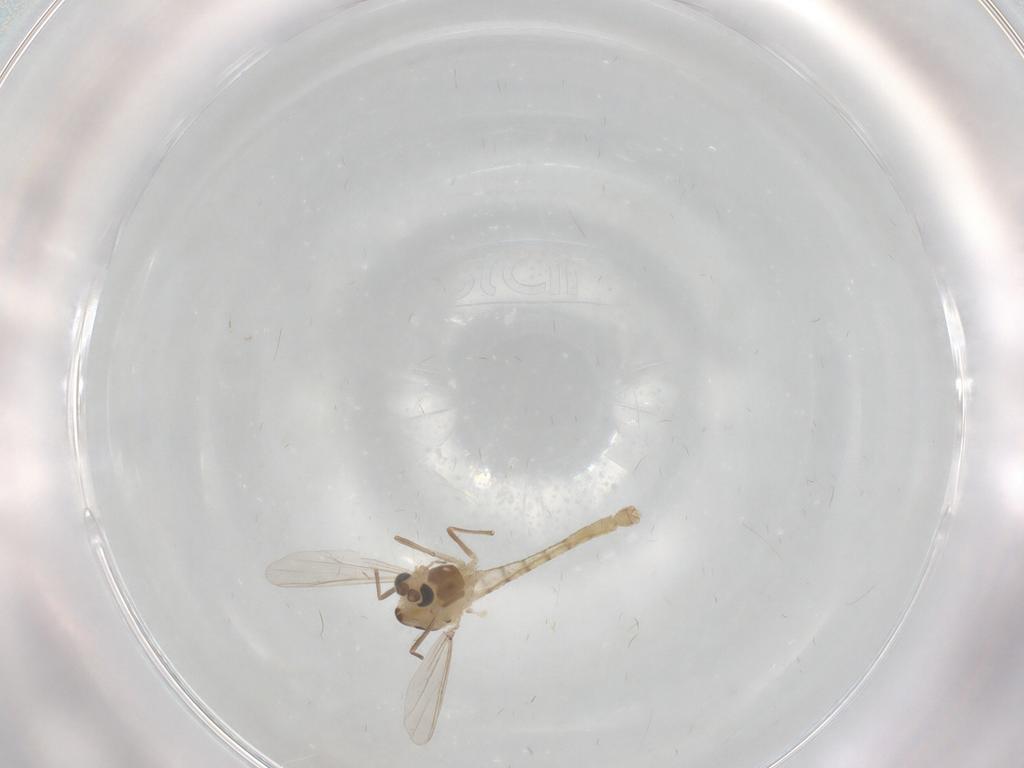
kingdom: Animalia
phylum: Arthropoda
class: Insecta
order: Diptera
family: Chironomidae
